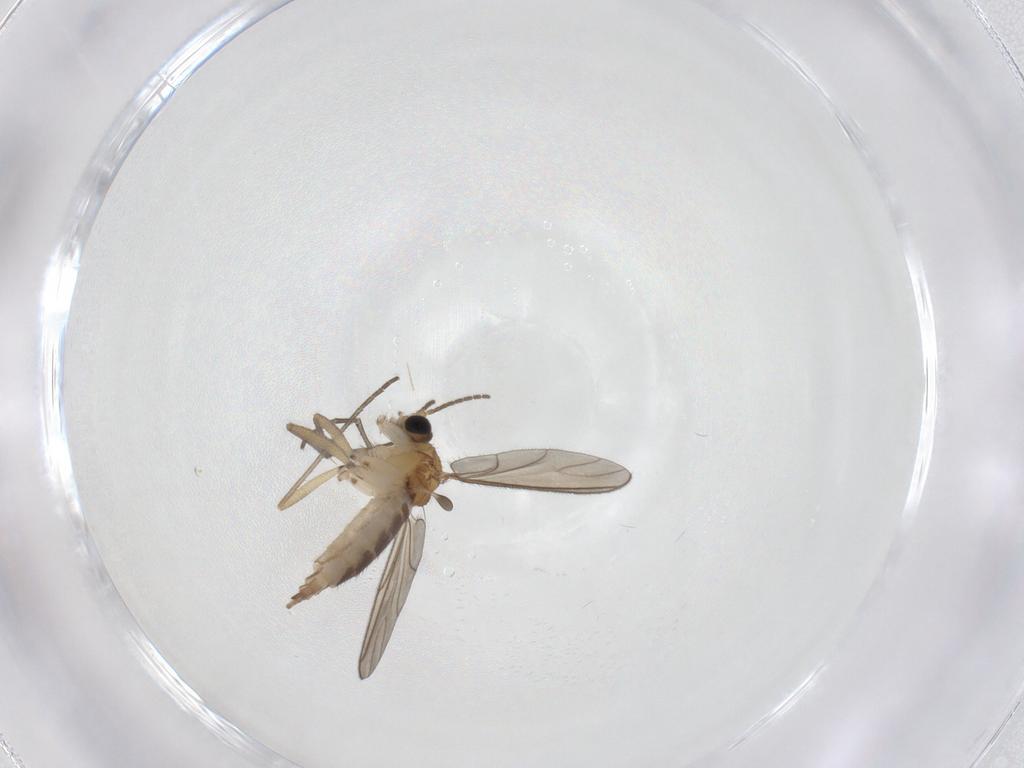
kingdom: Animalia
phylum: Arthropoda
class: Insecta
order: Diptera
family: Chironomidae
